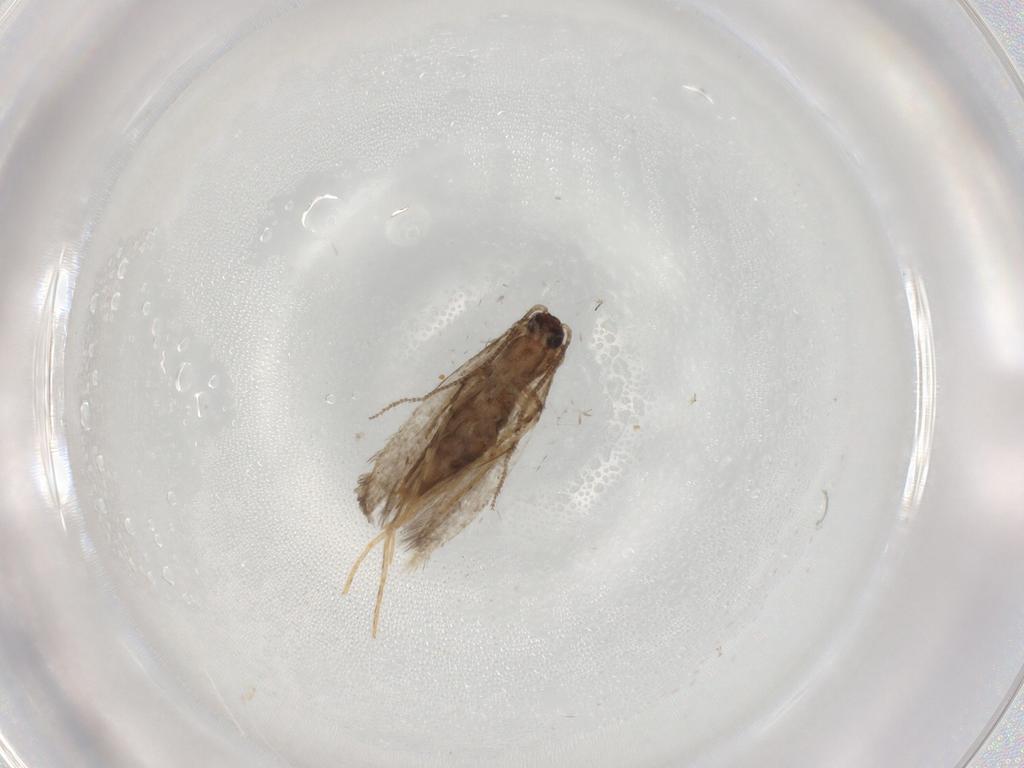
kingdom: Animalia
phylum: Arthropoda
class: Insecta
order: Lepidoptera
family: Tineidae
